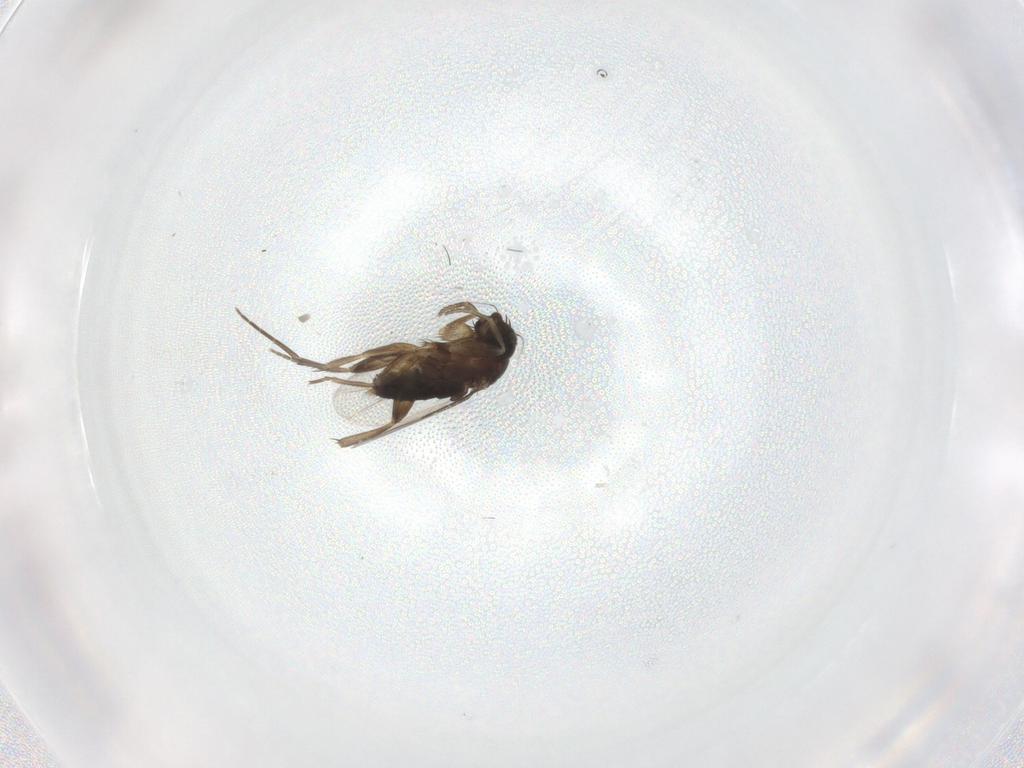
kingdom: Animalia
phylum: Arthropoda
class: Insecta
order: Diptera
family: Phoridae
